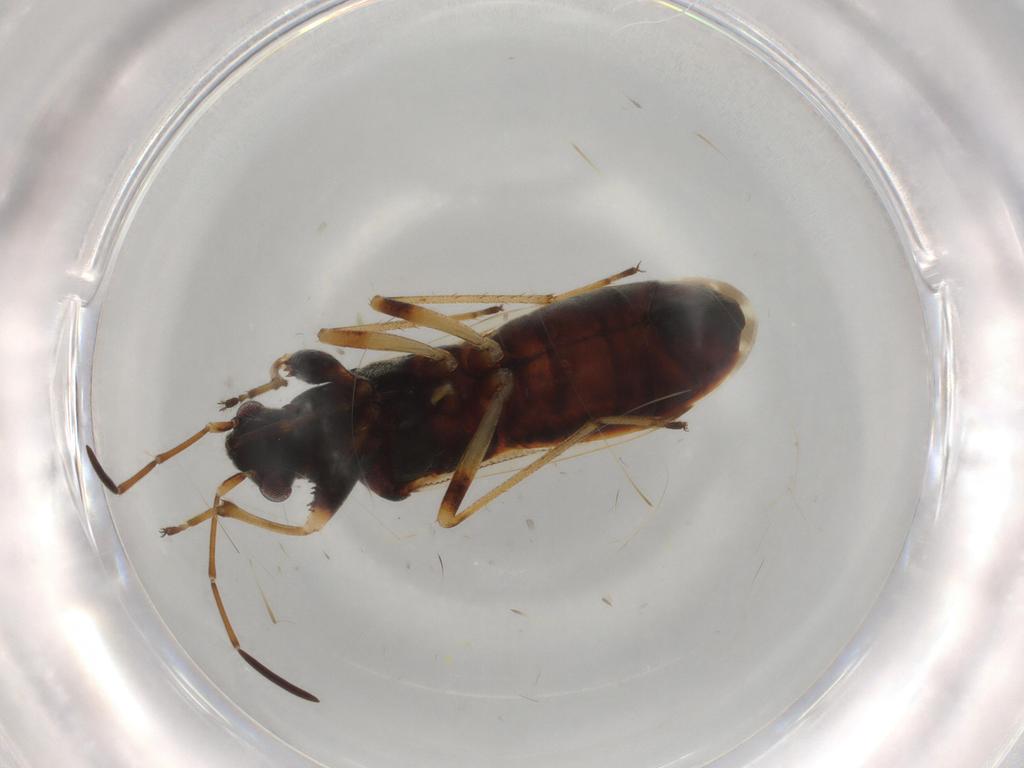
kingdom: Animalia
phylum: Arthropoda
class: Insecta
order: Hemiptera
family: Rhyparochromidae
